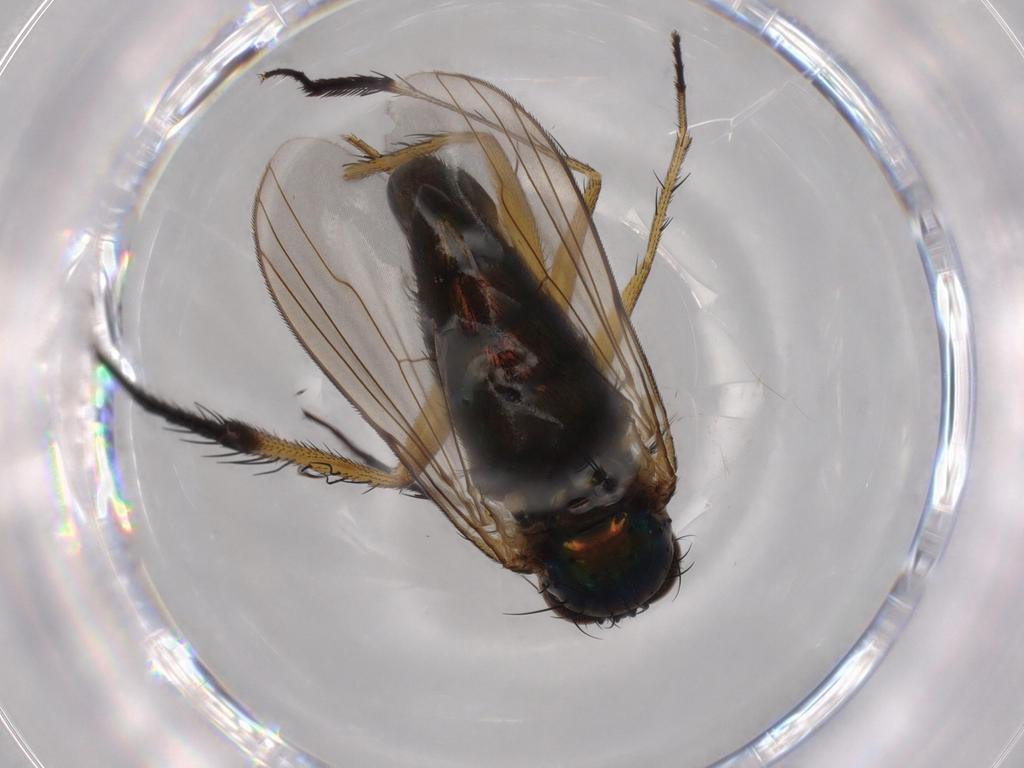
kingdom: Animalia
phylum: Arthropoda
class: Insecta
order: Diptera
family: Dolichopodidae
